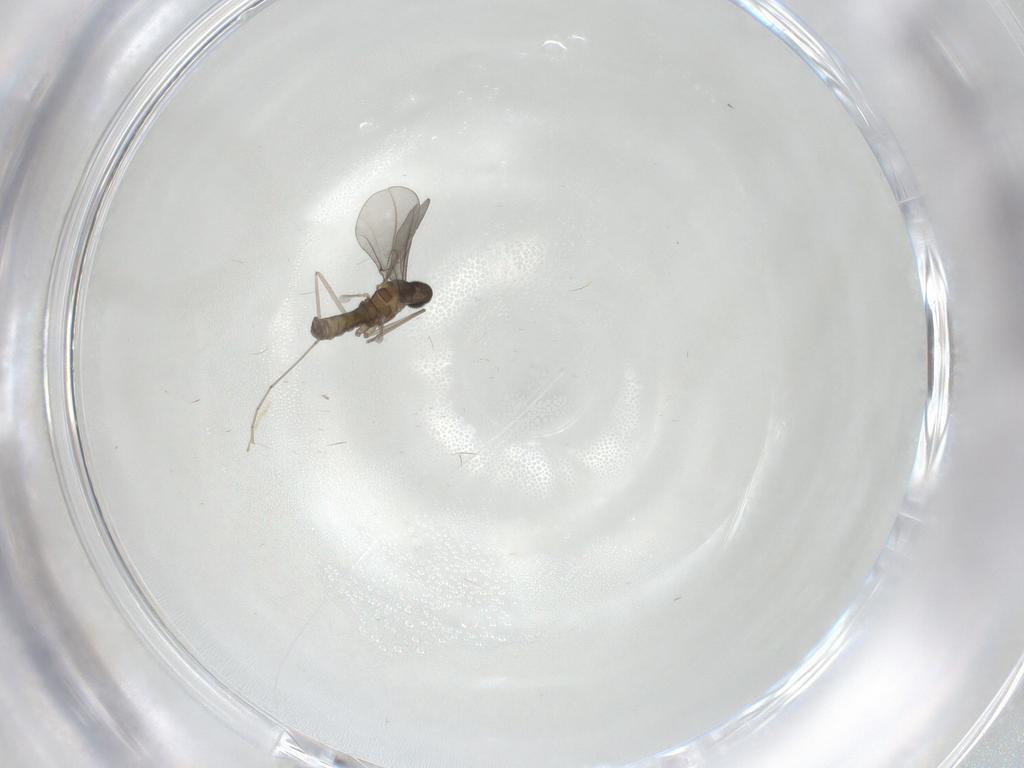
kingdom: Animalia
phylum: Arthropoda
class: Insecta
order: Diptera
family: Cecidomyiidae
